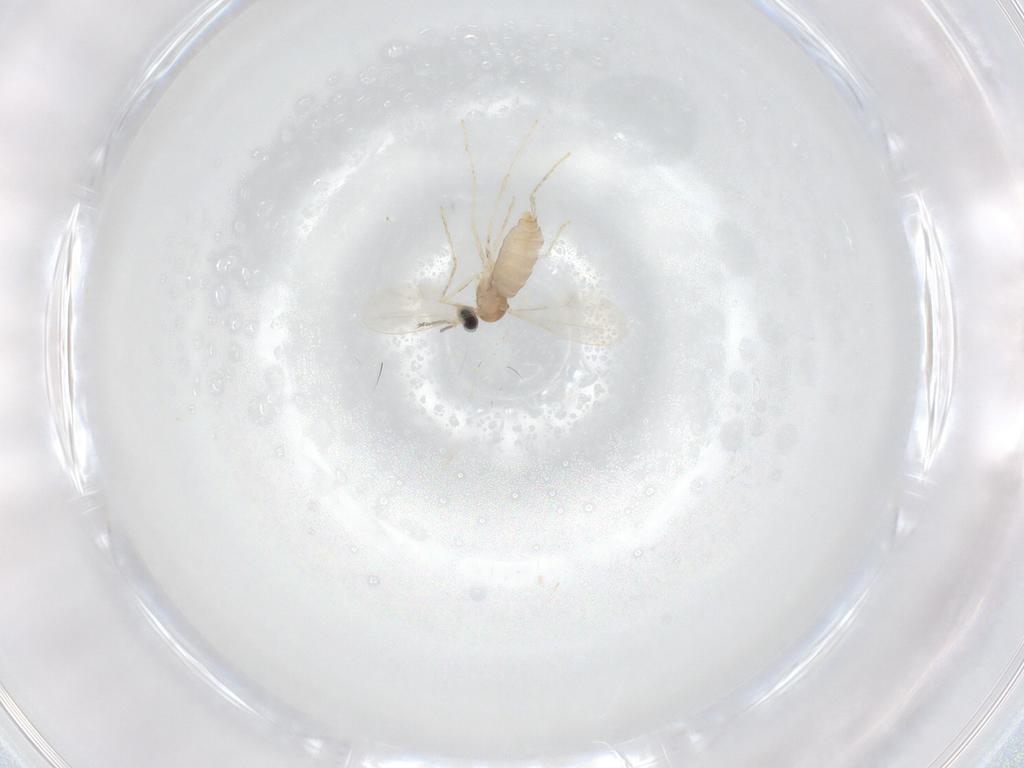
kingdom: Animalia
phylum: Arthropoda
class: Insecta
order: Diptera
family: Cecidomyiidae
